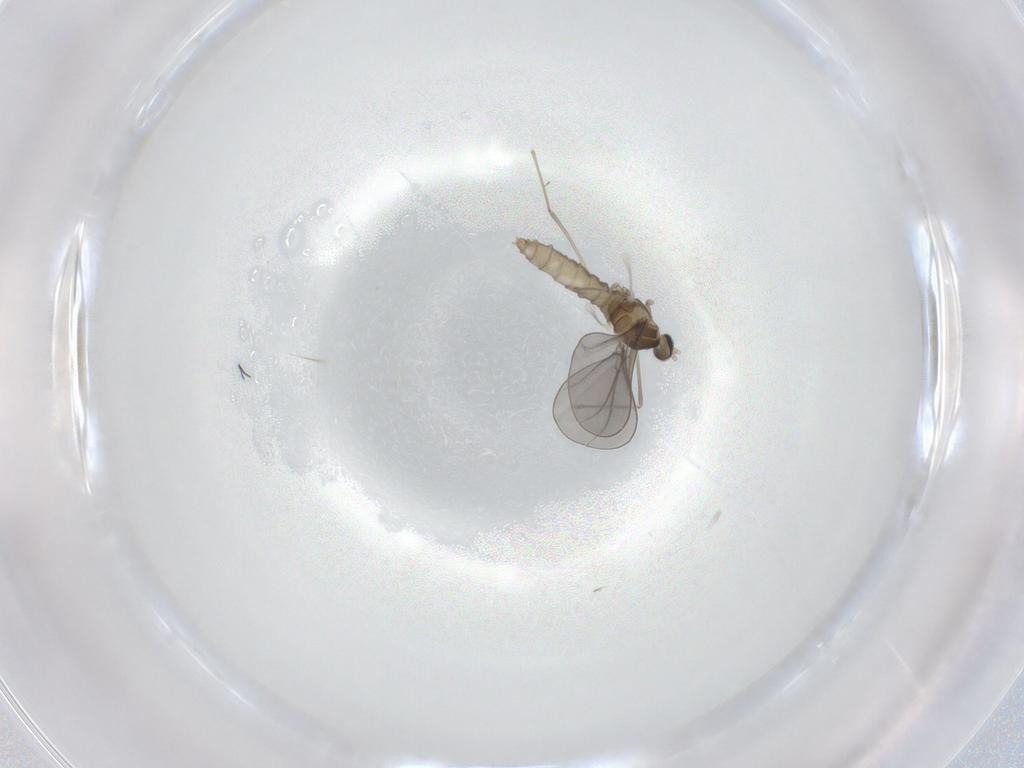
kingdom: Animalia
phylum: Arthropoda
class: Insecta
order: Diptera
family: Cecidomyiidae
